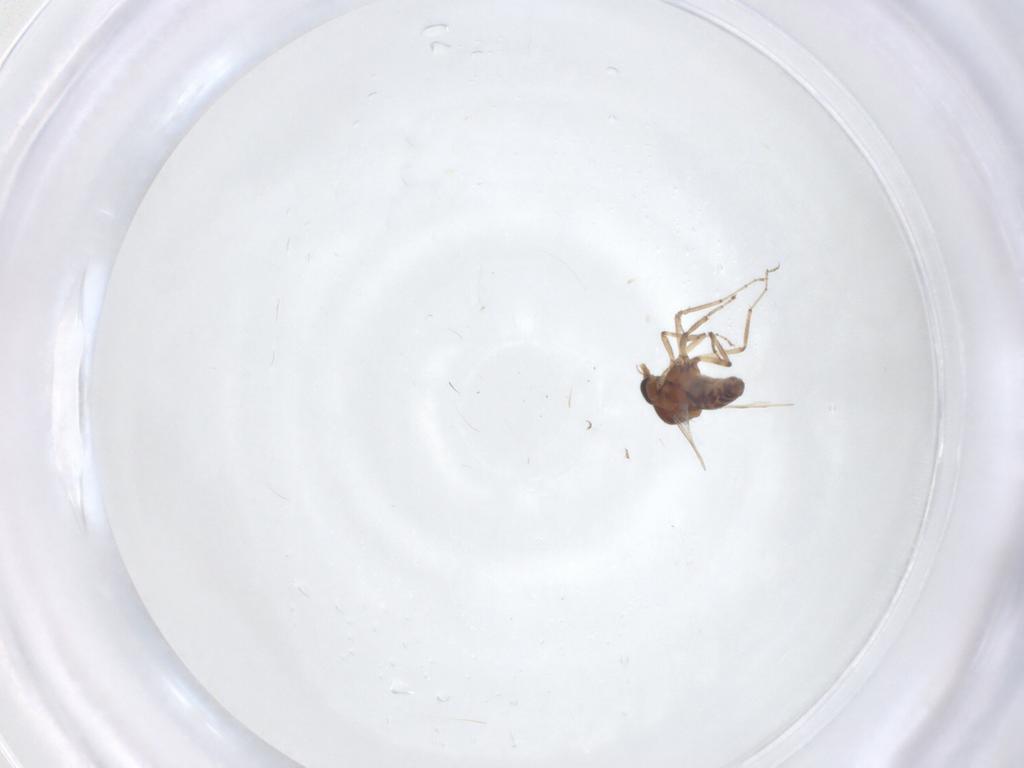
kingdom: Animalia
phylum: Arthropoda
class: Insecta
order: Diptera
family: Ceratopogonidae
